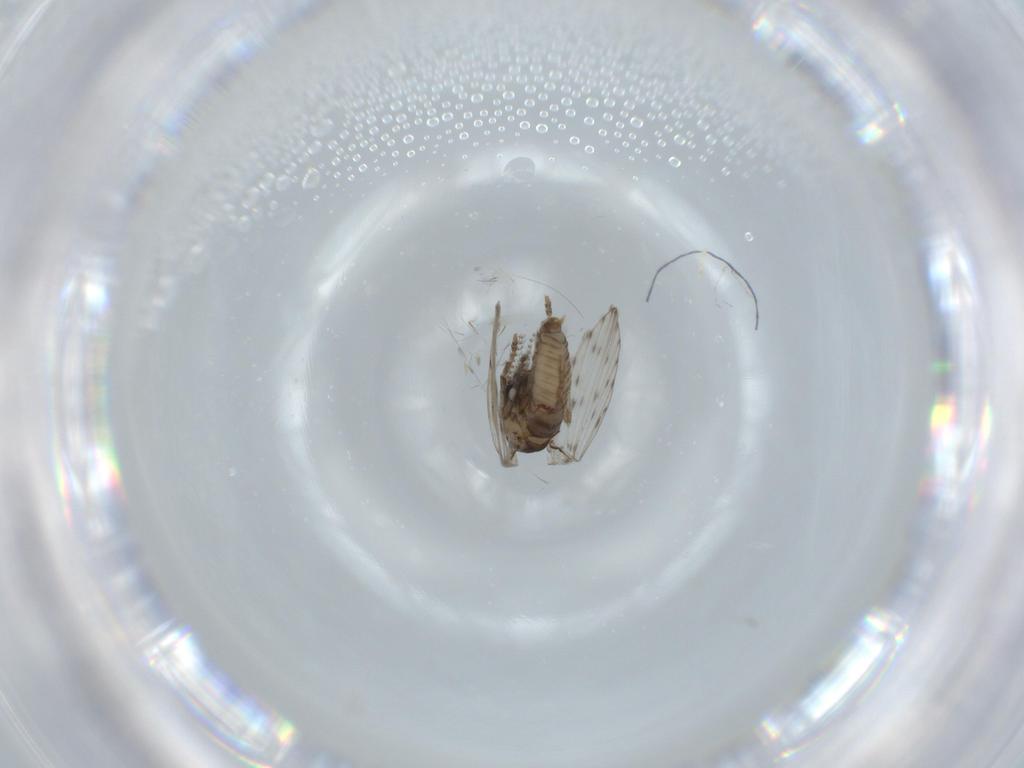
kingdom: Animalia
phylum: Arthropoda
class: Insecta
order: Diptera
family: Psychodidae
